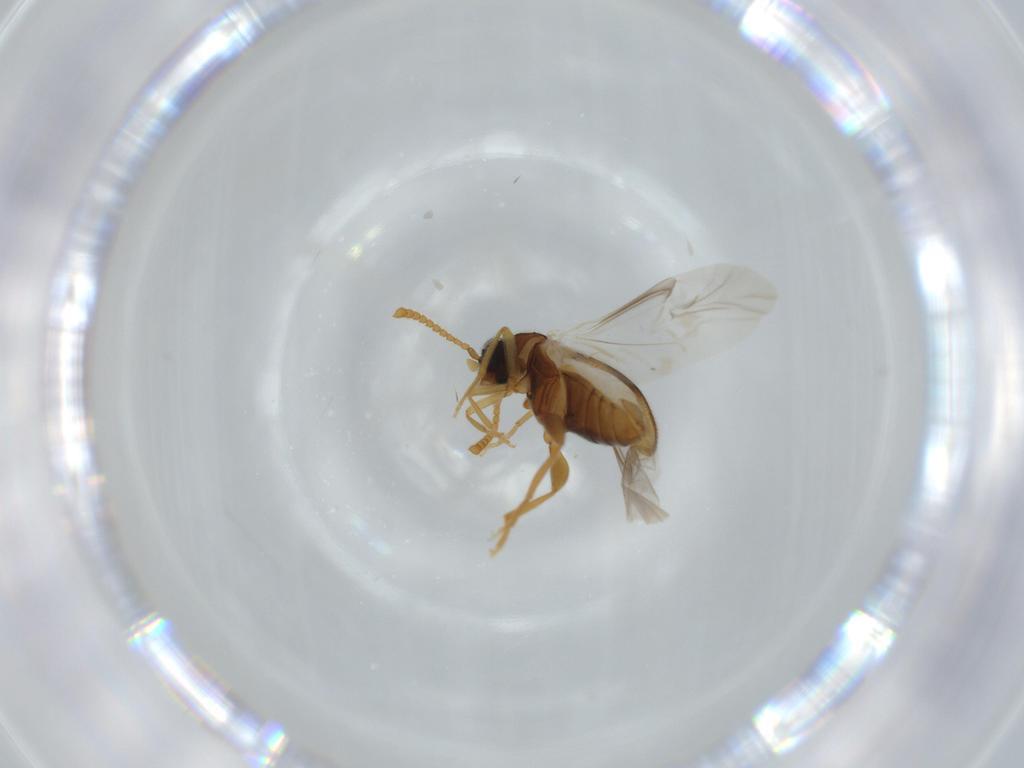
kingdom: Animalia
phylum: Arthropoda
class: Insecta
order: Coleoptera
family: Aderidae
